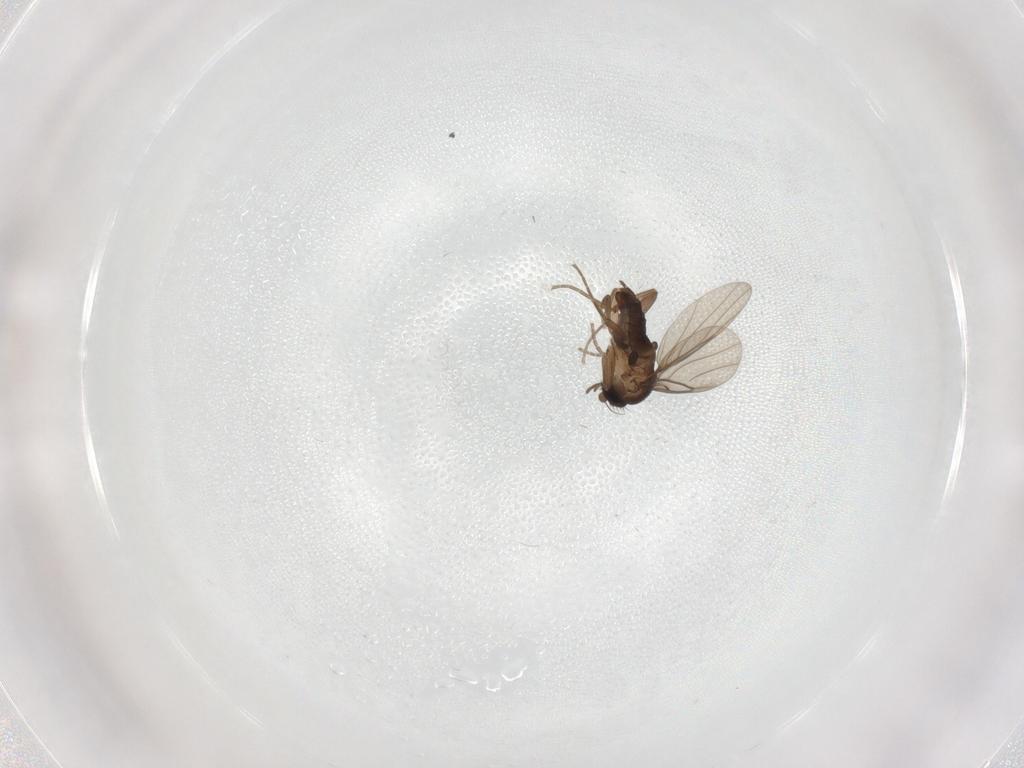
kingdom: Animalia
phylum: Arthropoda
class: Insecta
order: Diptera
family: Ceratopogonidae
